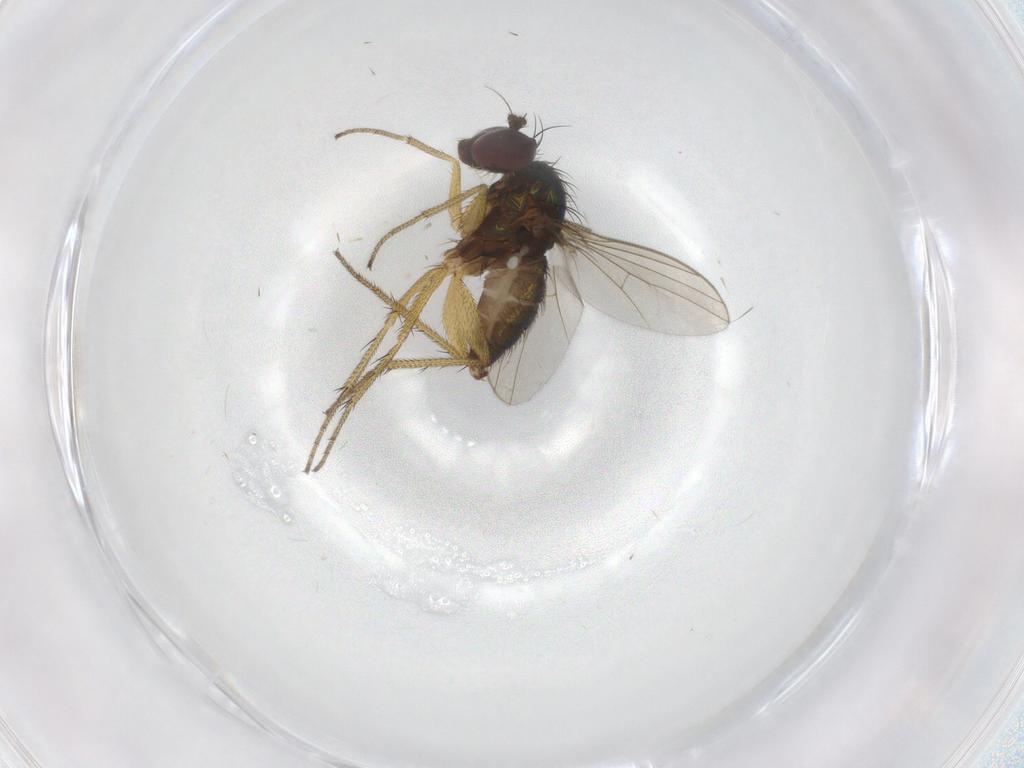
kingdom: Animalia
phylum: Arthropoda
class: Insecta
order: Diptera
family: Dolichopodidae
